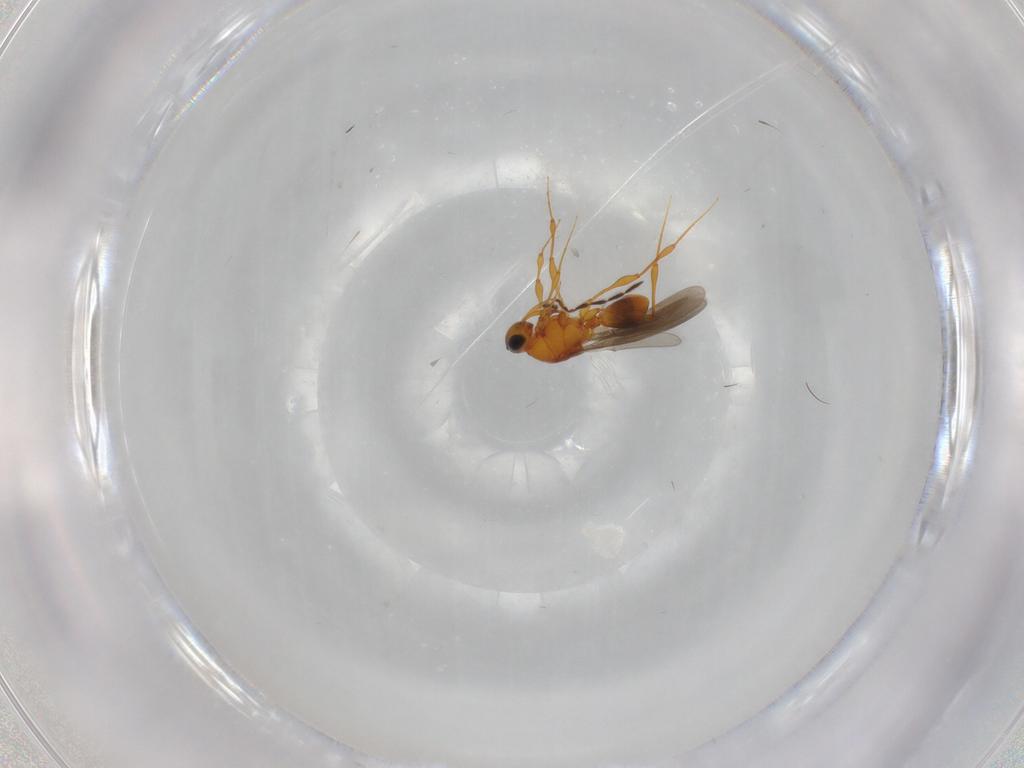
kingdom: Animalia
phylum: Arthropoda
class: Insecta
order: Hymenoptera
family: Platygastridae
